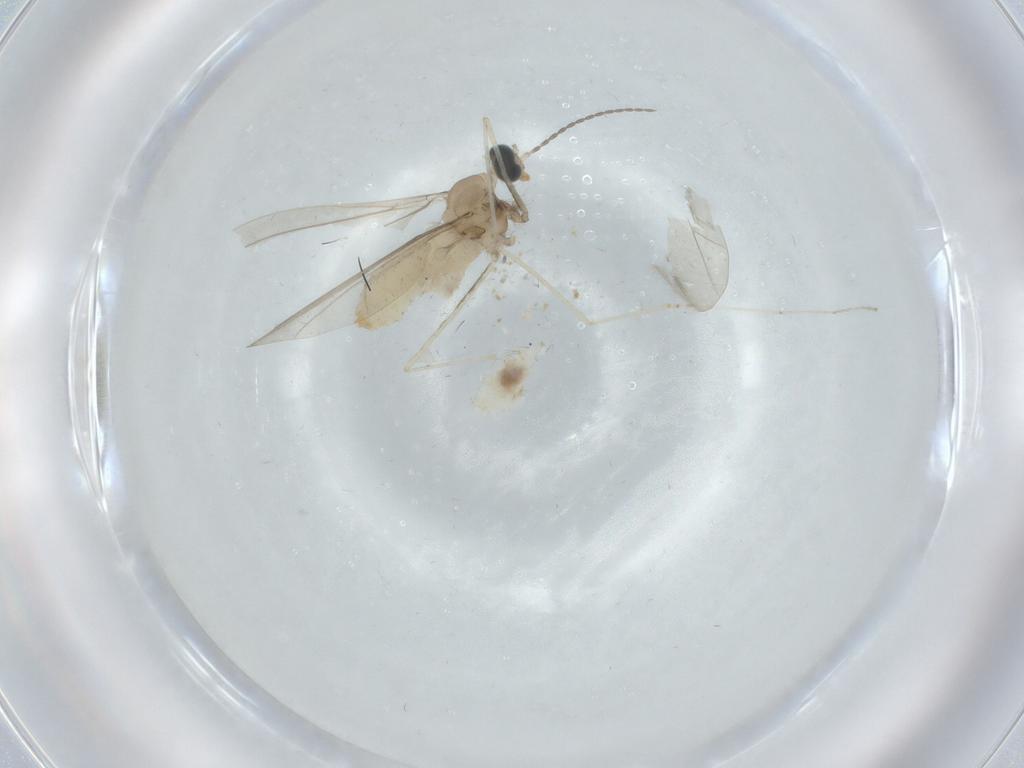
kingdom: Animalia
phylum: Arthropoda
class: Insecta
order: Diptera
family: Cecidomyiidae
